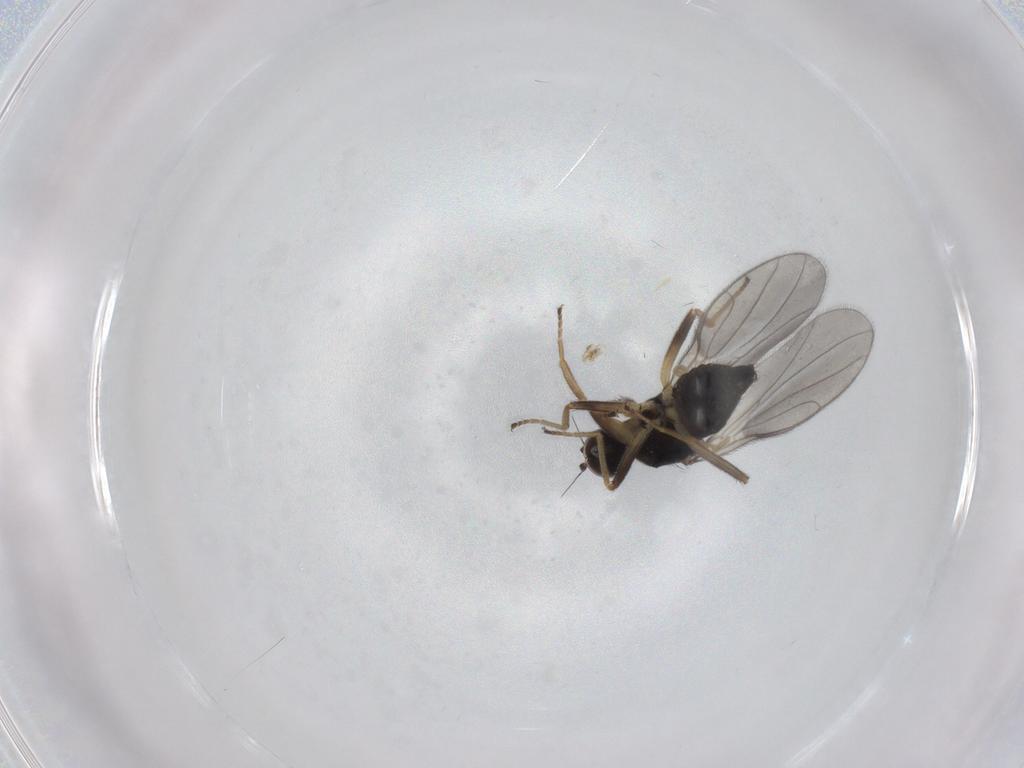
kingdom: Animalia
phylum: Arthropoda
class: Insecta
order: Diptera
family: Hybotidae
